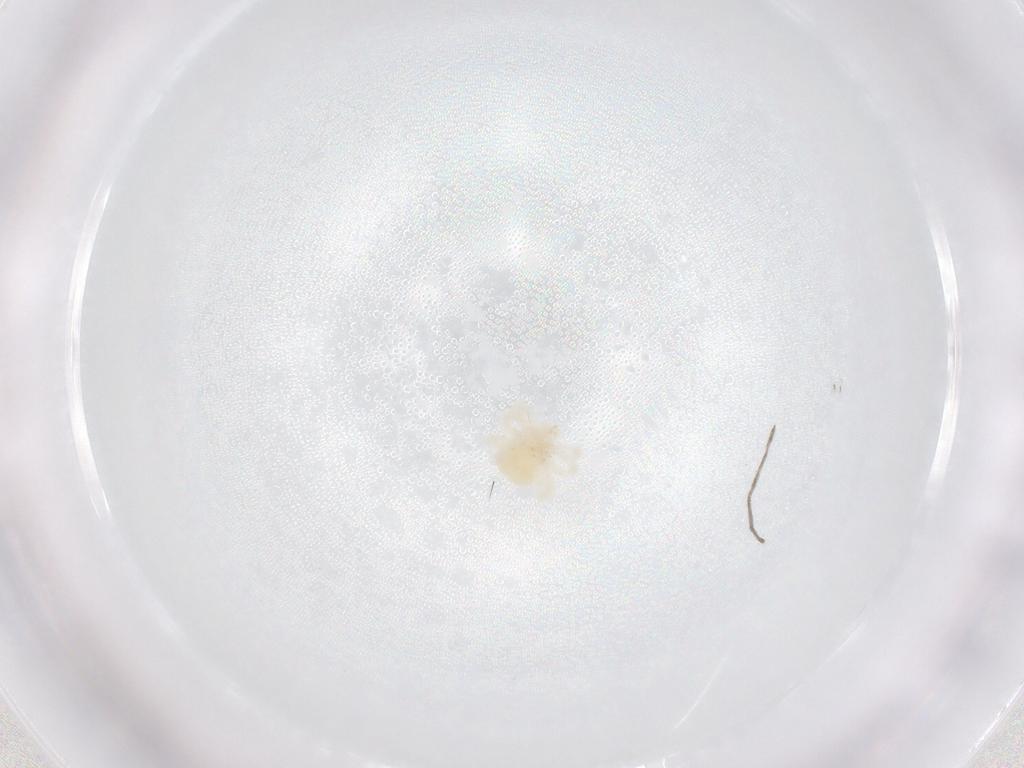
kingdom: Animalia
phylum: Arthropoda
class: Arachnida
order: Trombidiformes
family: Anystidae
